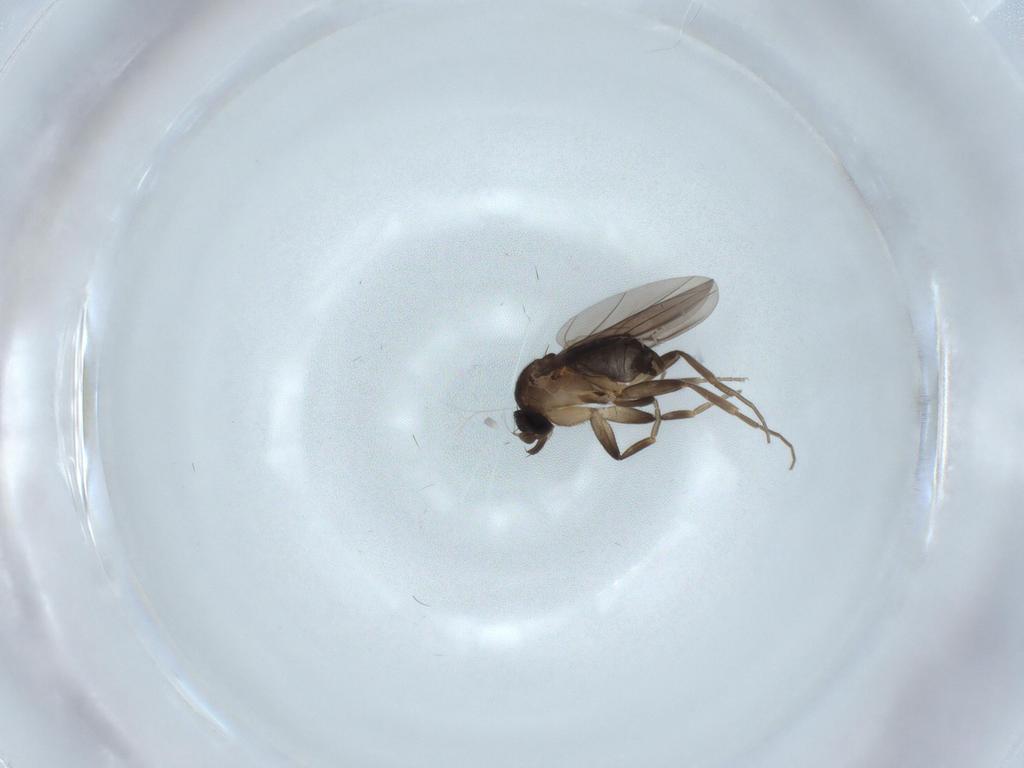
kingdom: Animalia
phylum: Arthropoda
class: Insecta
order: Diptera
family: Phoridae
